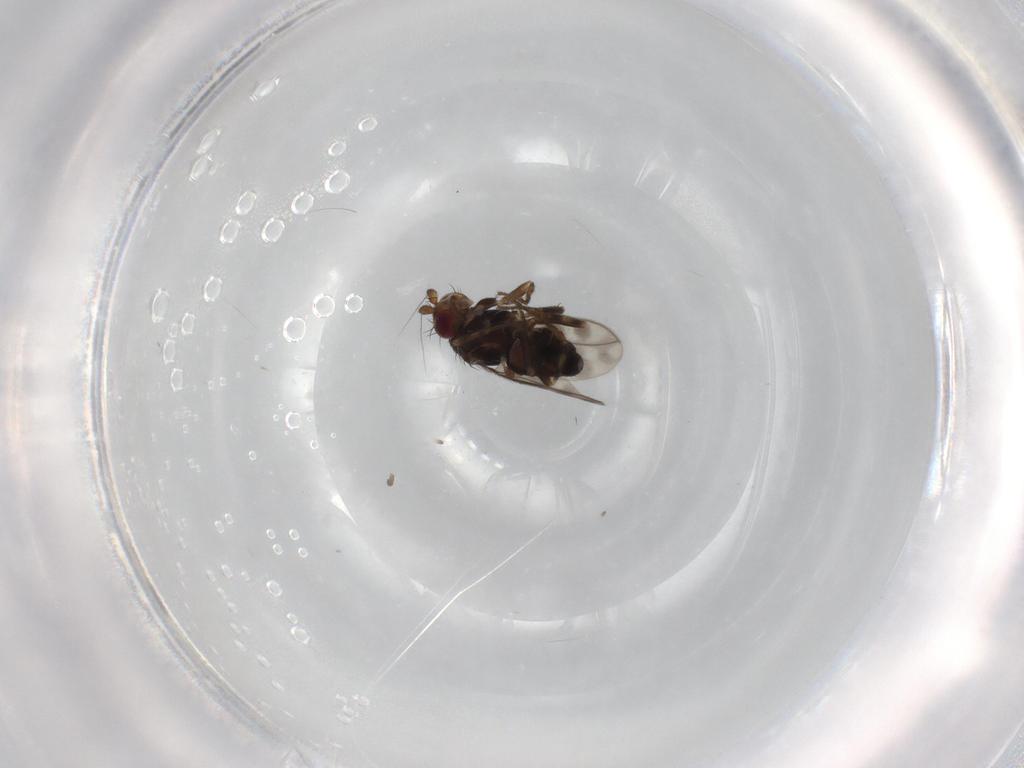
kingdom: Animalia
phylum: Arthropoda
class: Insecta
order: Diptera
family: Sphaeroceridae
